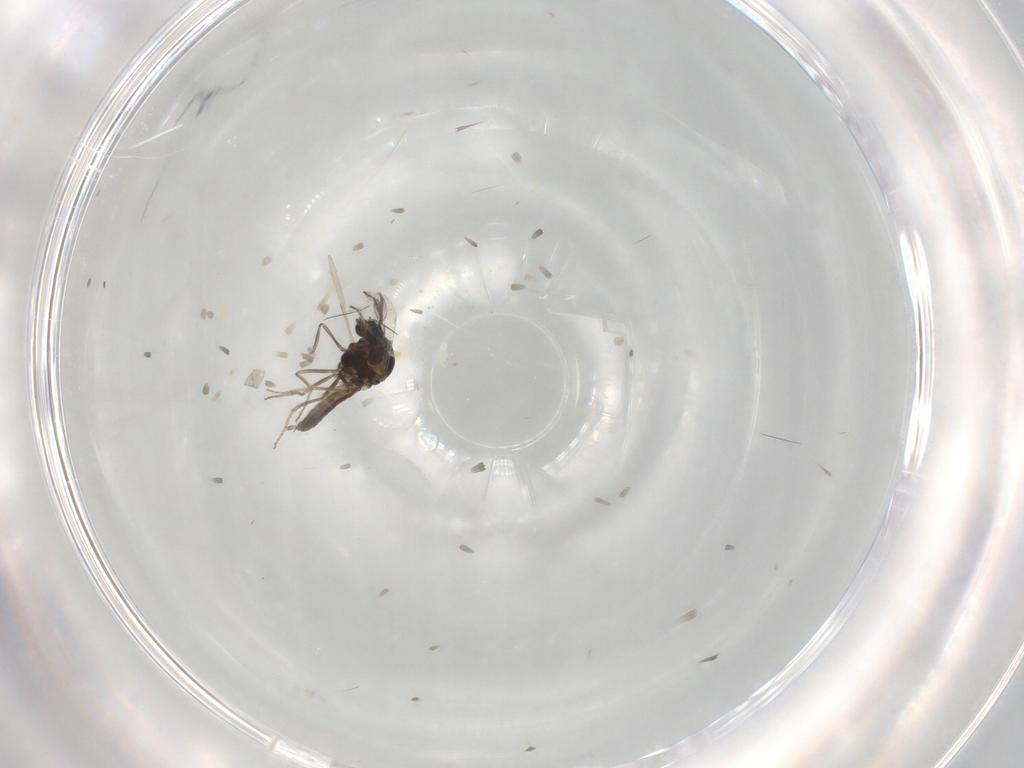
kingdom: Animalia
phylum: Arthropoda
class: Insecta
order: Diptera
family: Ceratopogonidae
